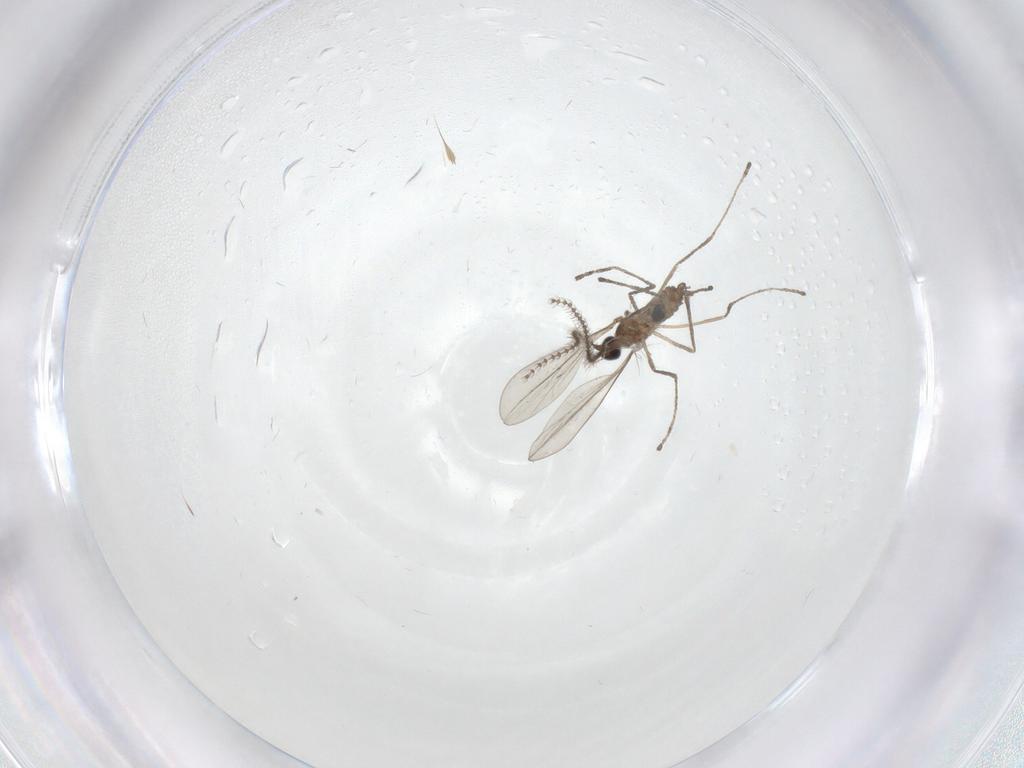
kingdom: Animalia
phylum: Arthropoda
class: Insecta
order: Diptera
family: Cecidomyiidae
